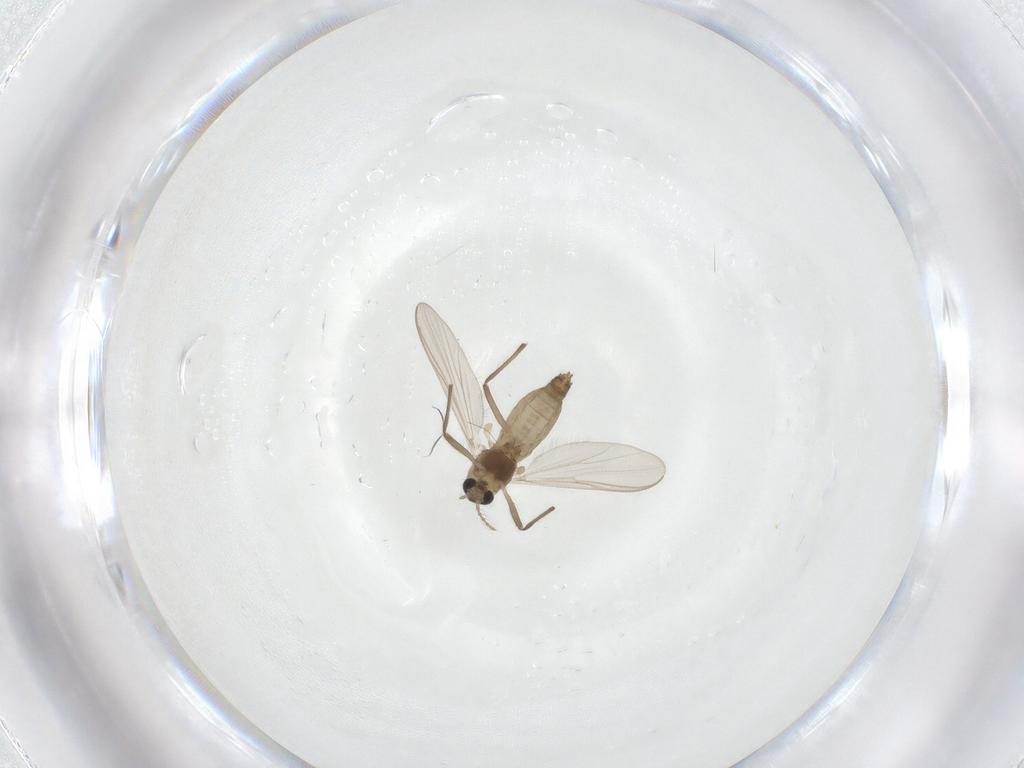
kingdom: Animalia
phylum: Arthropoda
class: Insecta
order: Diptera
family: Chironomidae
